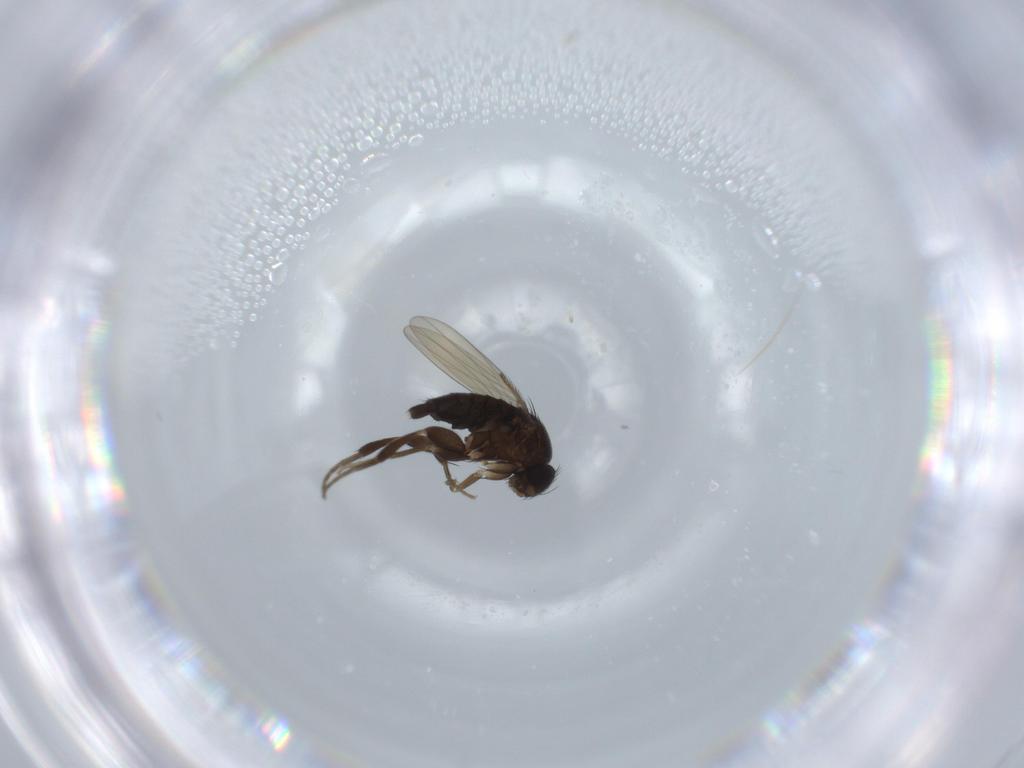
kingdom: Animalia
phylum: Arthropoda
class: Insecta
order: Diptera
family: Phoridae
